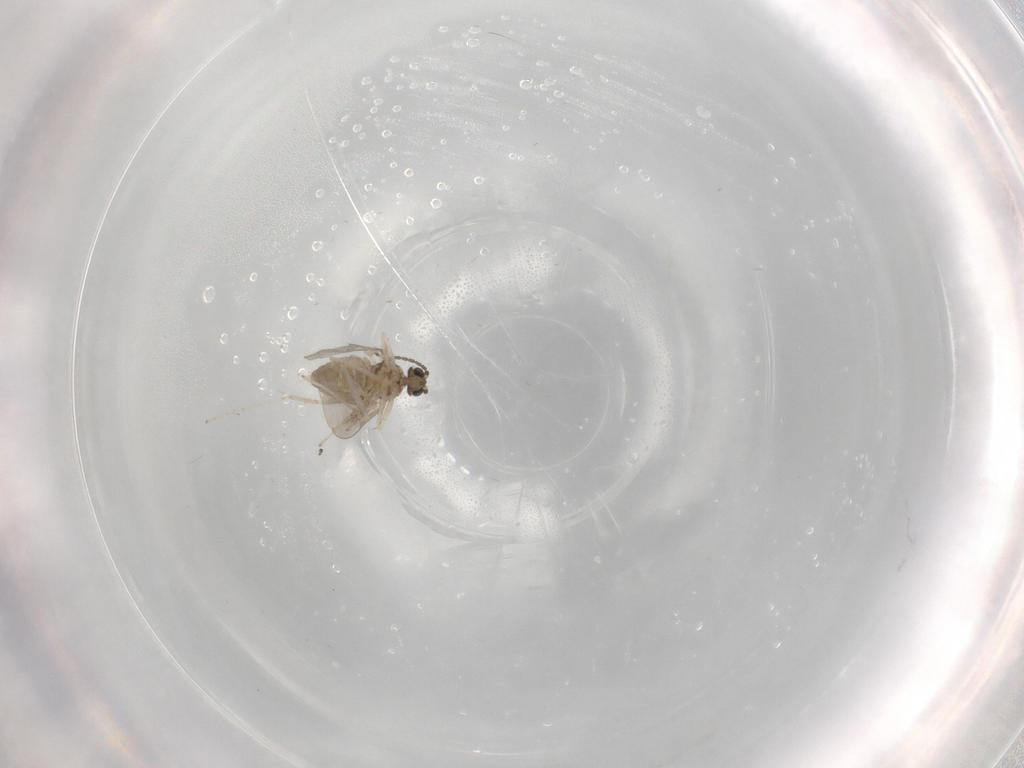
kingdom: Animalia
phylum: Arthropoda
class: Insecta
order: Diptera
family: Cecidomyiidae
